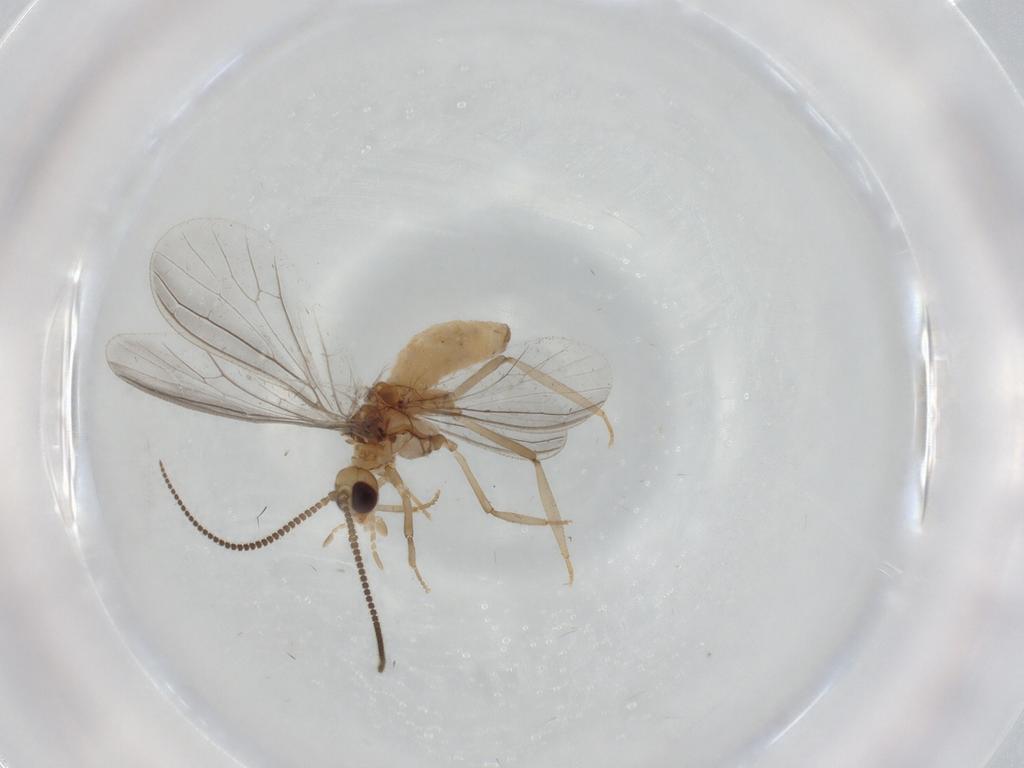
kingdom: Animalia
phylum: Arthropoda
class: Insecta
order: Neuroptera
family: Coniopterygidae
